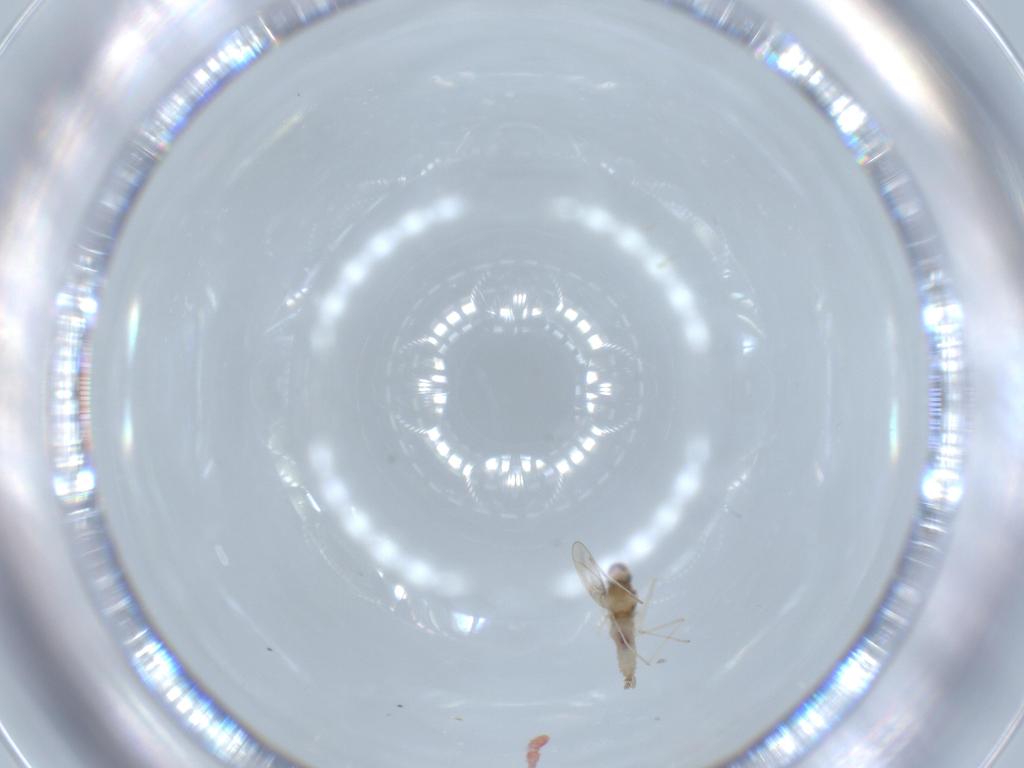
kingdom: Animalia
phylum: Arthropoda
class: Insecta
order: Diptera
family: Cecidomyiidae
